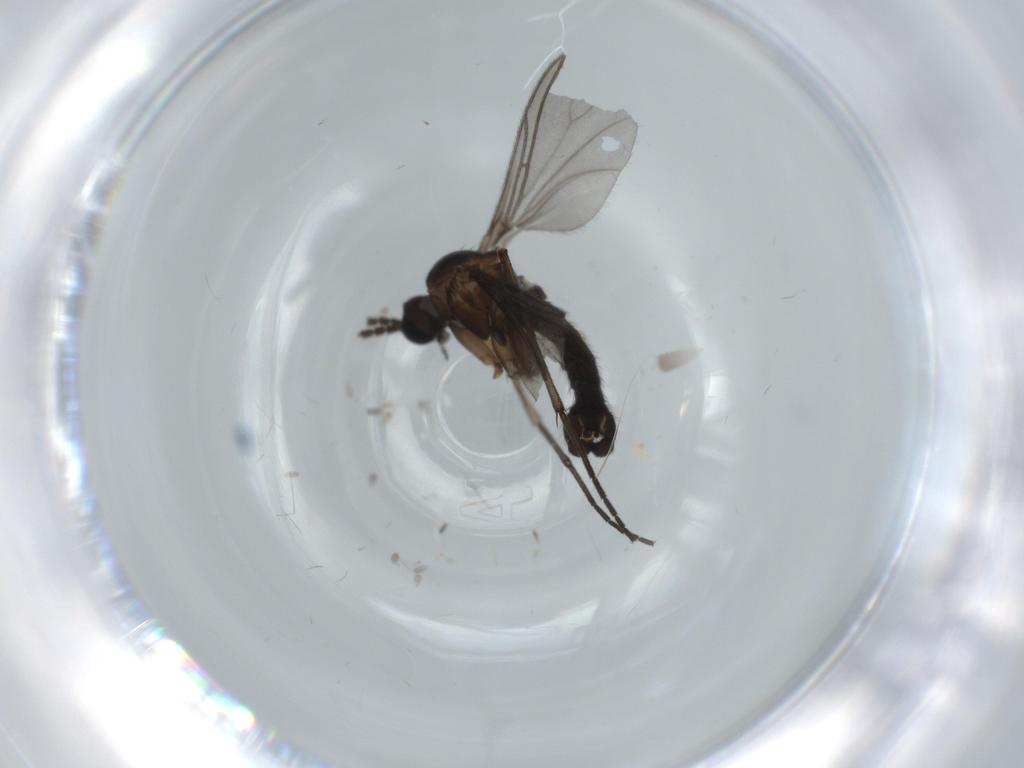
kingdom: Animalia
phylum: Arthropoda
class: Insecta
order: Diptera
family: Sciaridae
